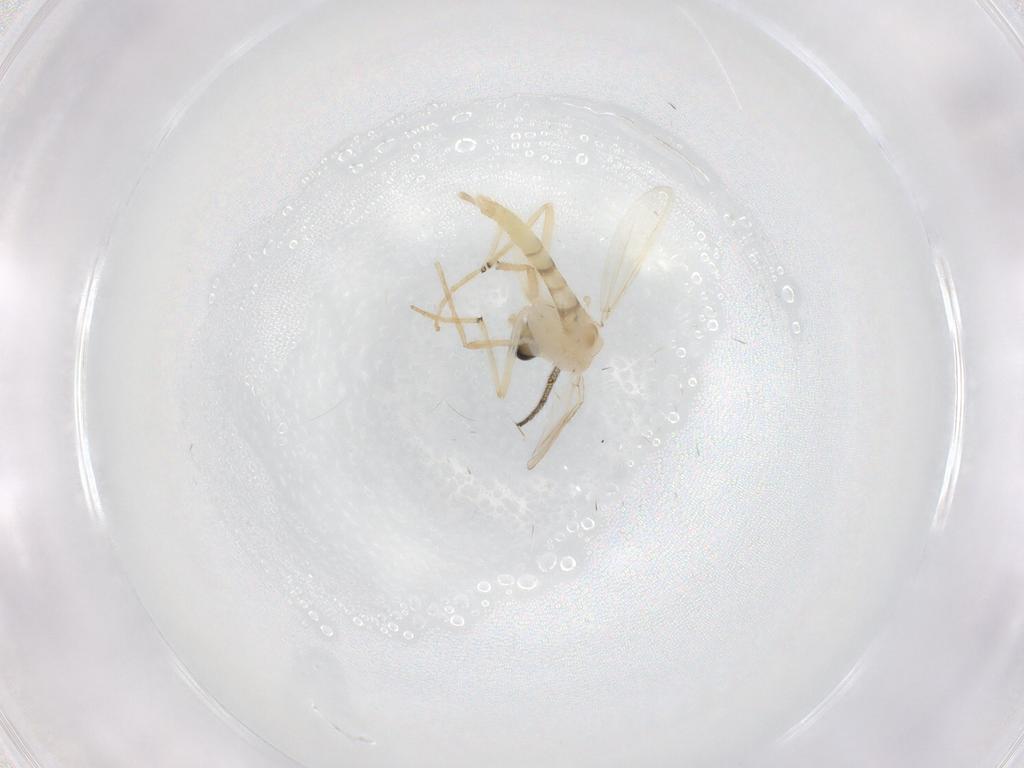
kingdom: Animalia
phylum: Arthropoda
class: Insecta
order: Diptera
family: Chironomidae
